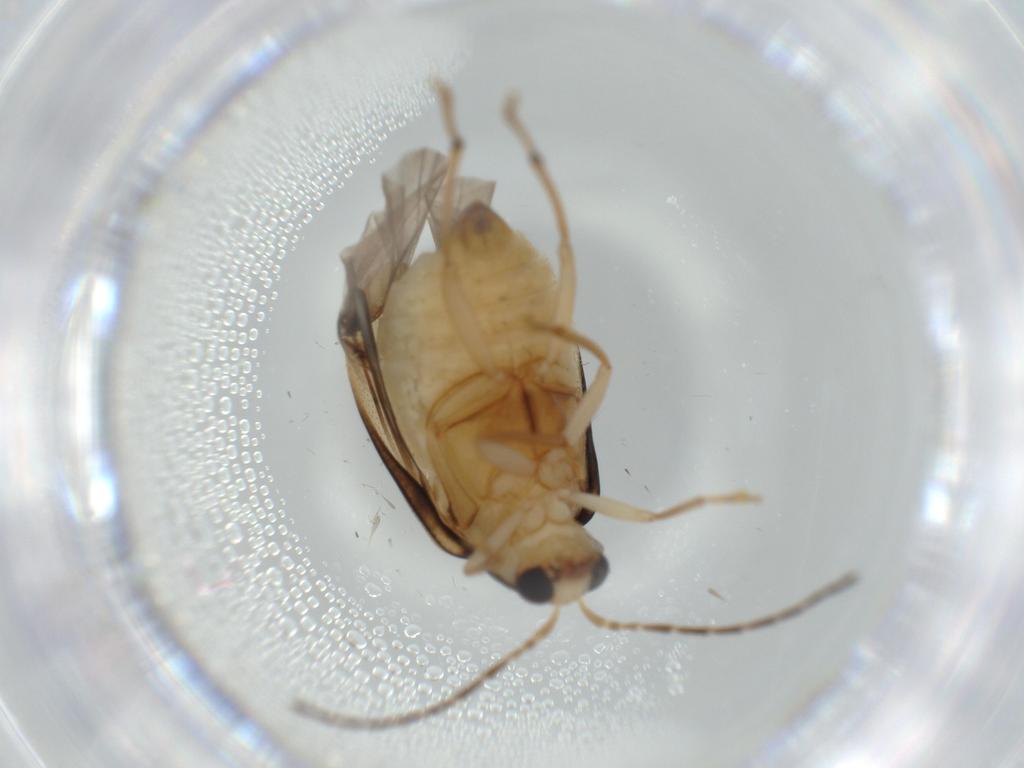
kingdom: Animalia
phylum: Arthropoda
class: Insecta
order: Coleoptera
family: Chrysomelidae
